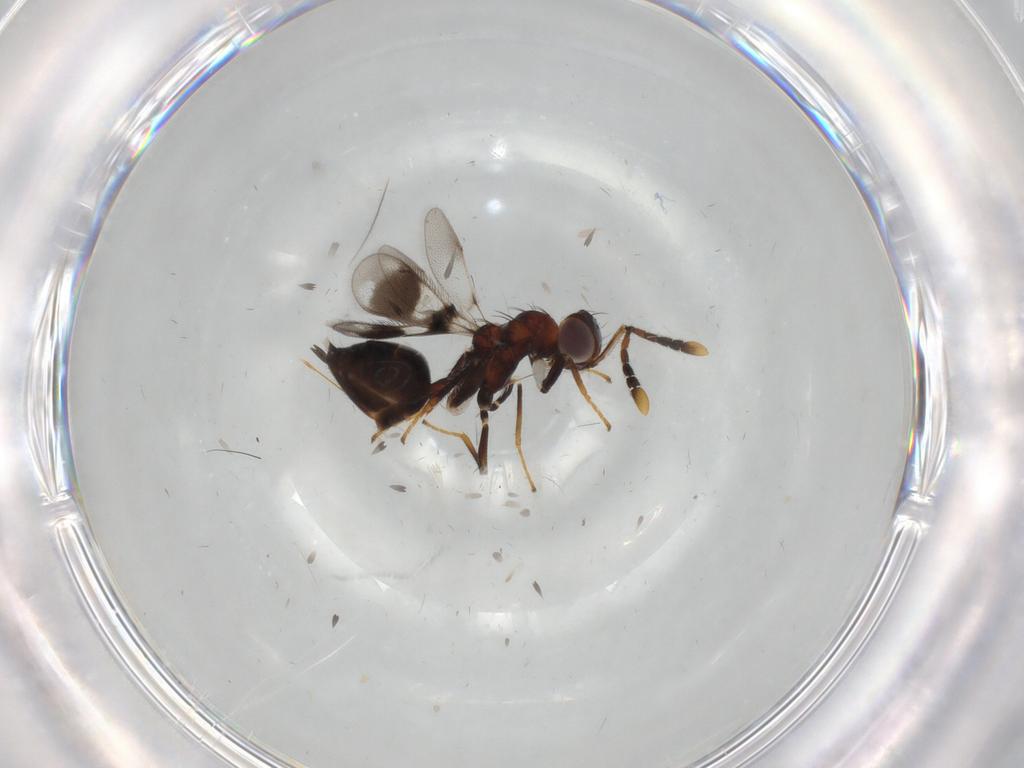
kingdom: Animalia
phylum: Arthropoda
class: Insecta
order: Hymenoptera
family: Eulophidae
